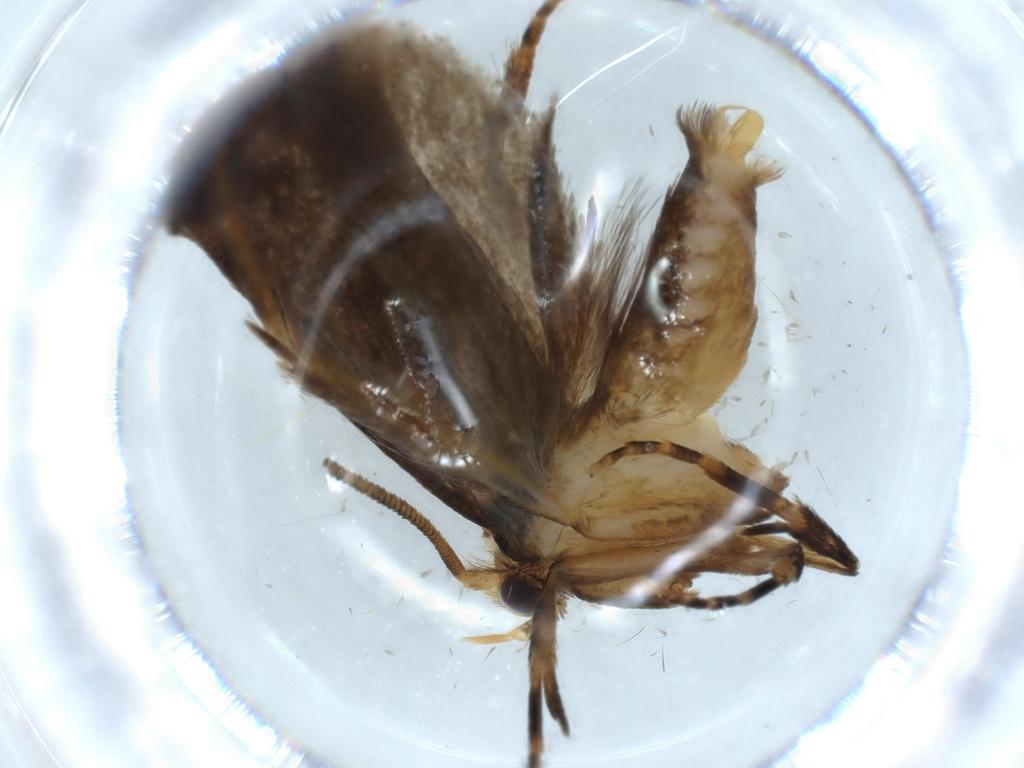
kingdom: Animalia
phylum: Arthropoda
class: Insecta
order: Lepidoptera
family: Tineidae
